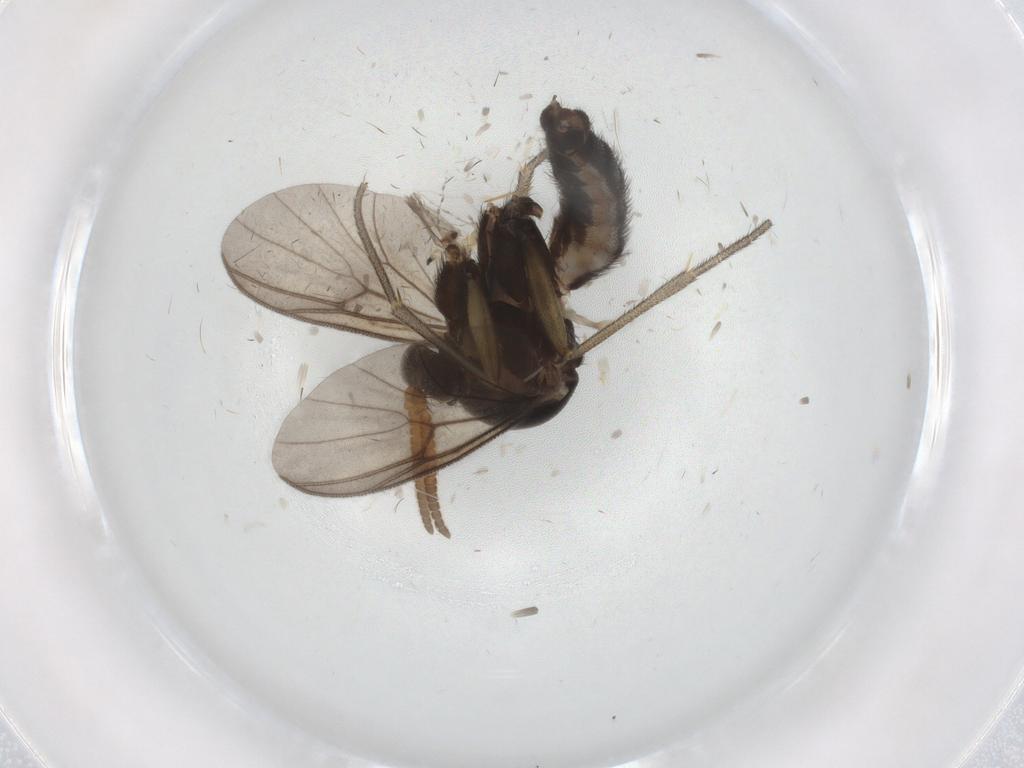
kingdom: Animalia
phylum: Arthropoda
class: Insecta
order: Diptera
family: Mycetophilidae
